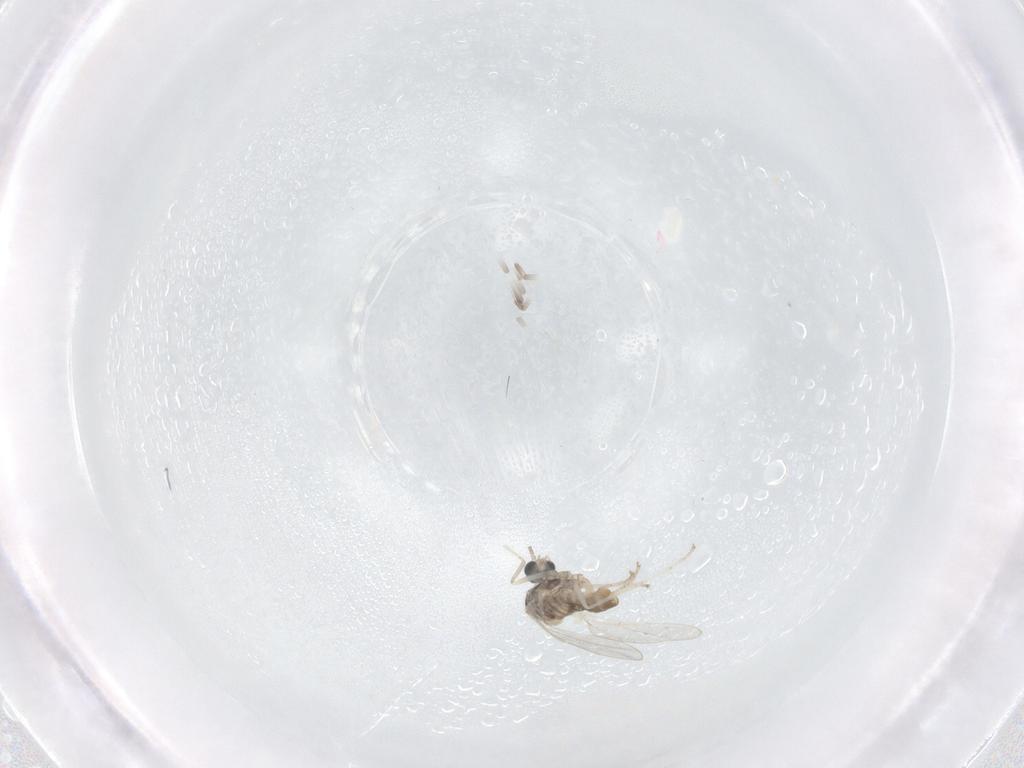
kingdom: Animalia
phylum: Arthropoda
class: Insecta
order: Diptera
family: Cecidomyiidae
